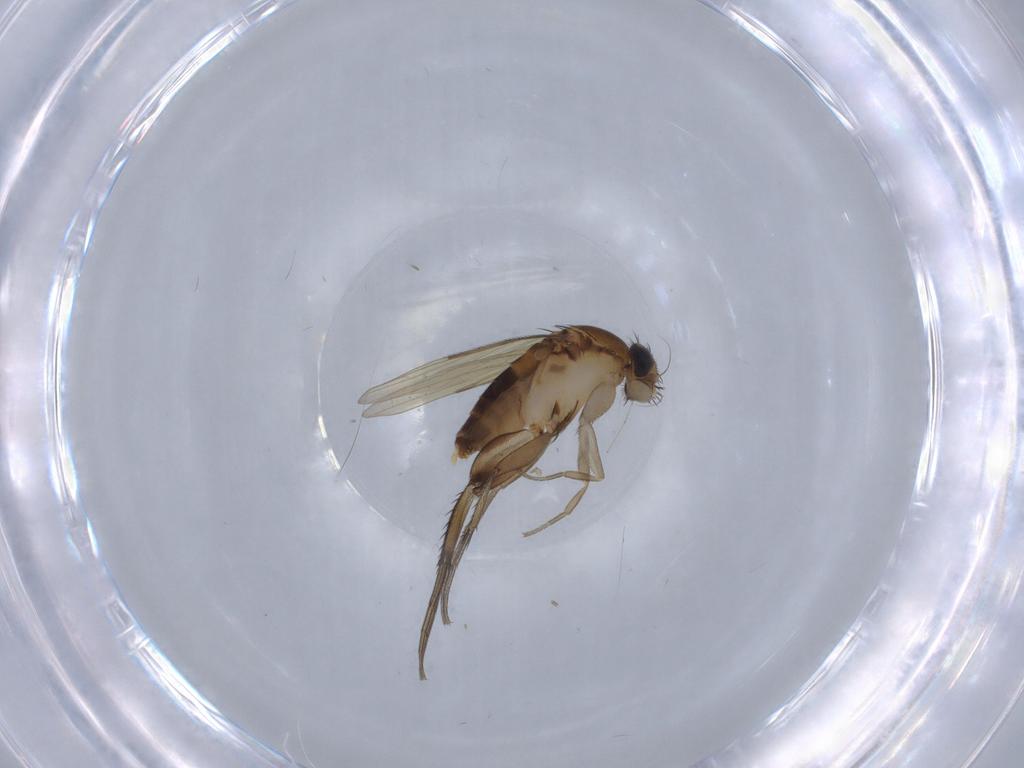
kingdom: Animalia
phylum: Arthropoda
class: Insecta
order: Diptera
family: Phoridae
